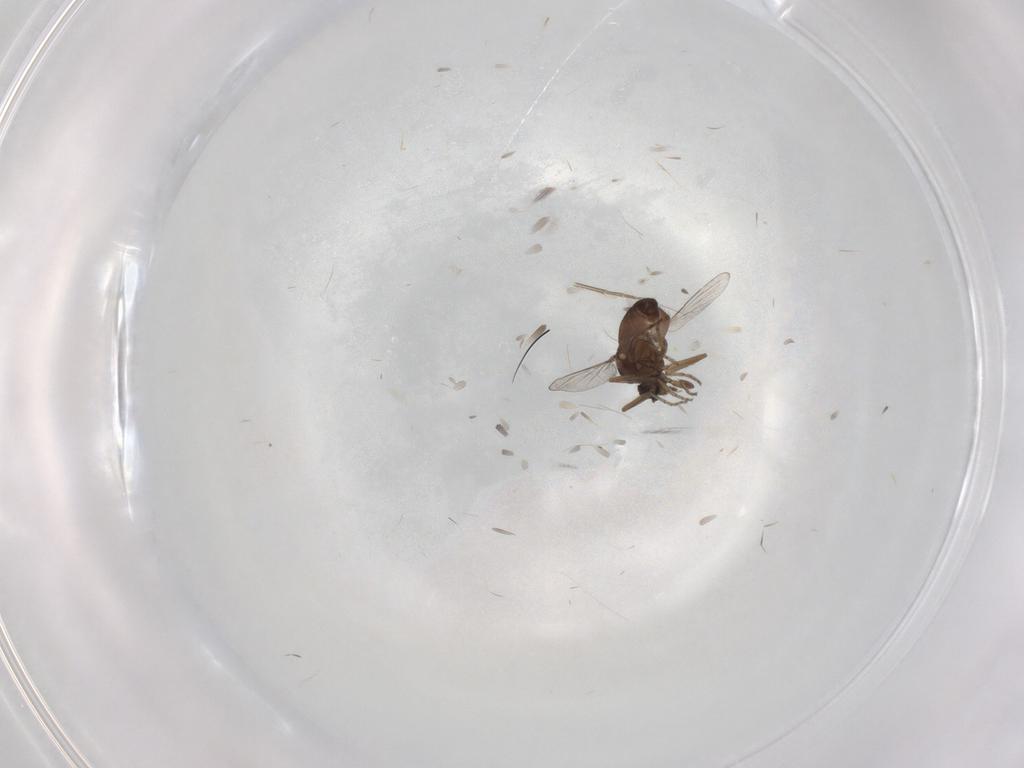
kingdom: Animalia
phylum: Arthropoda
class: Insecta
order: Diptera
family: Ceratopogonidae
